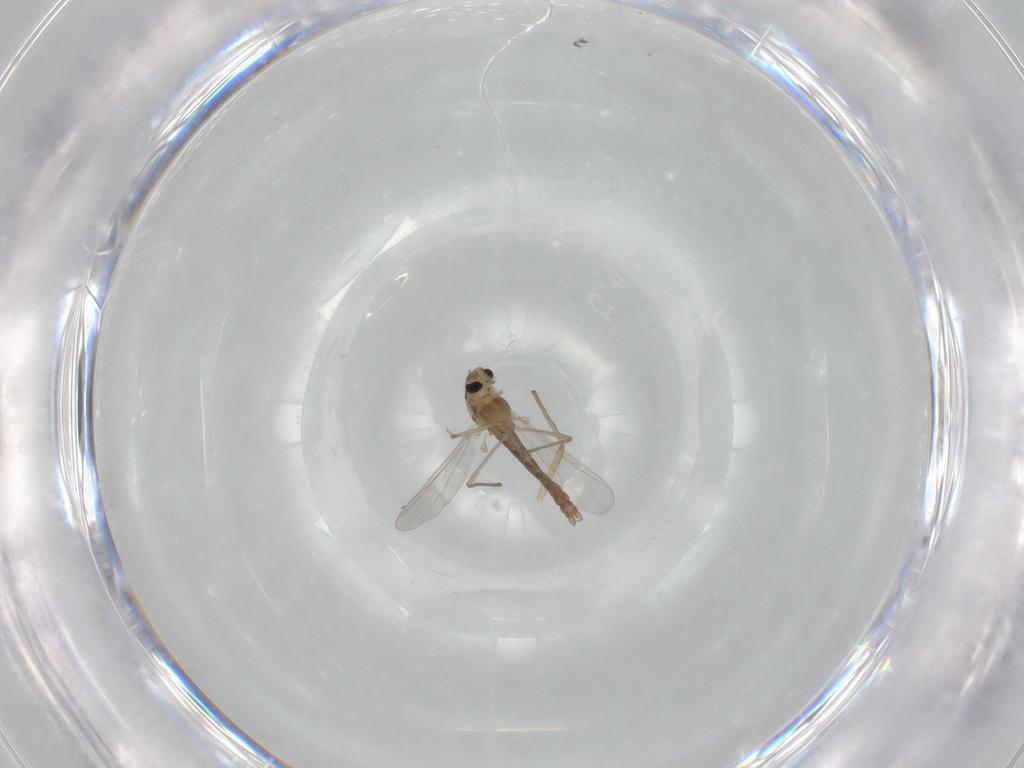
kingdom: Animalia
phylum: Arthropoda
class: Insecta
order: Diptera
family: Chironomidae
